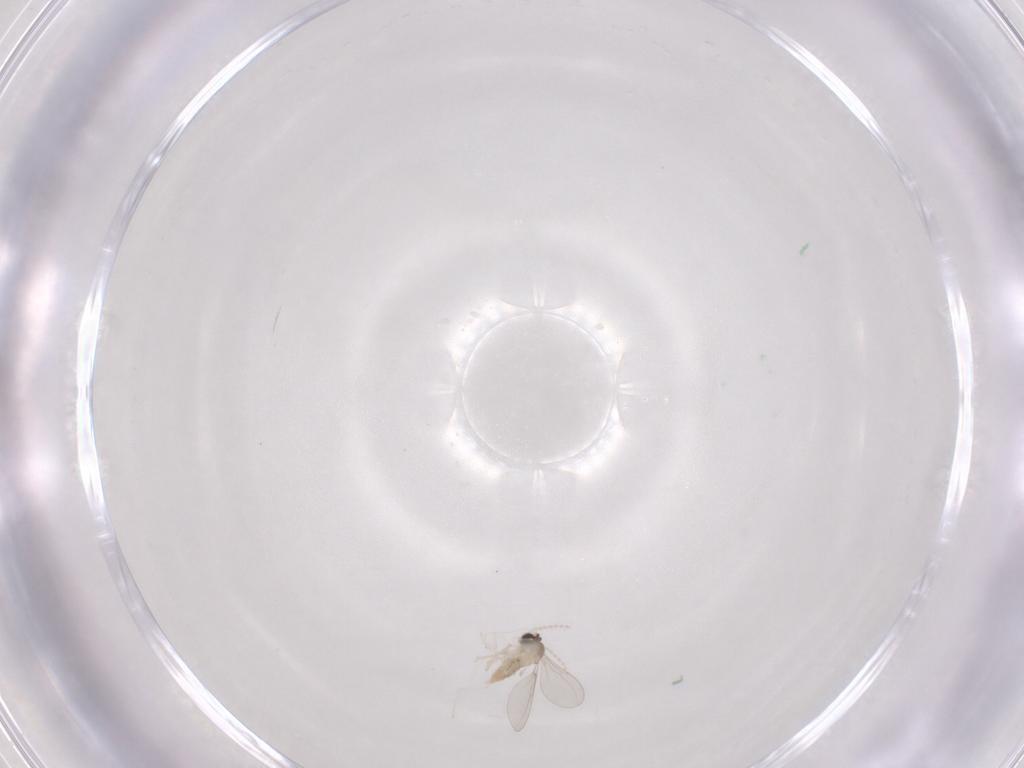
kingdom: Animalia
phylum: Arthropoda
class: Insecta
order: Diptera
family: Cecidomyiidae
